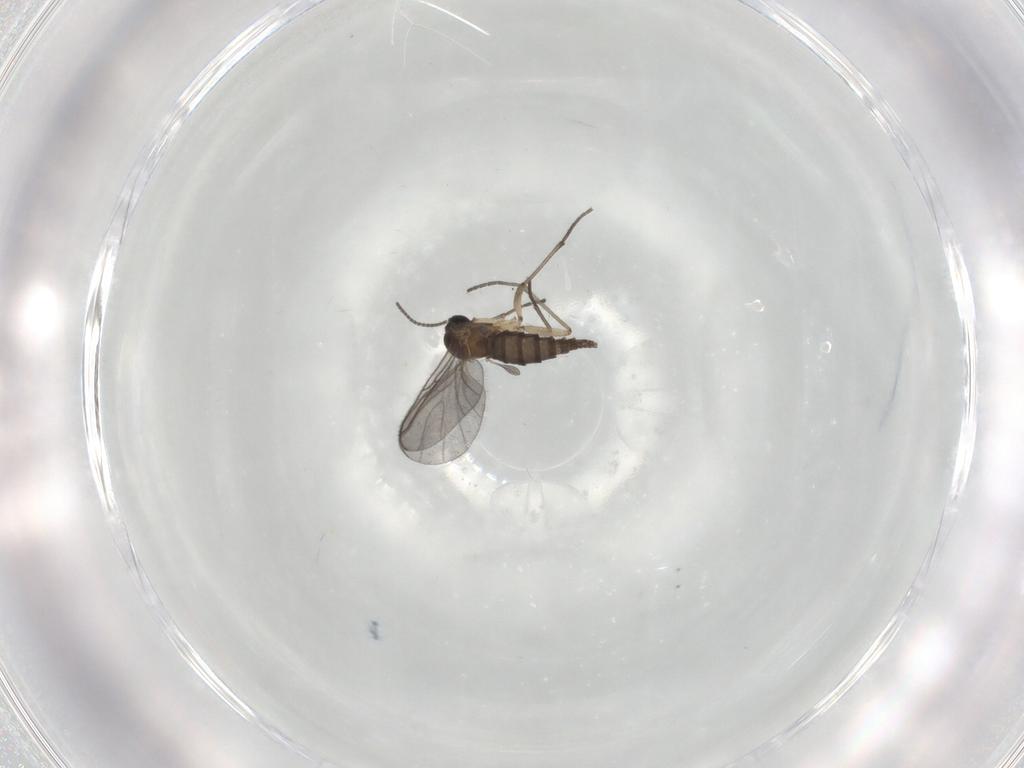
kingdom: Animalia
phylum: Arthropoda
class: Insecta
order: Diptera
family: Sciaridae
